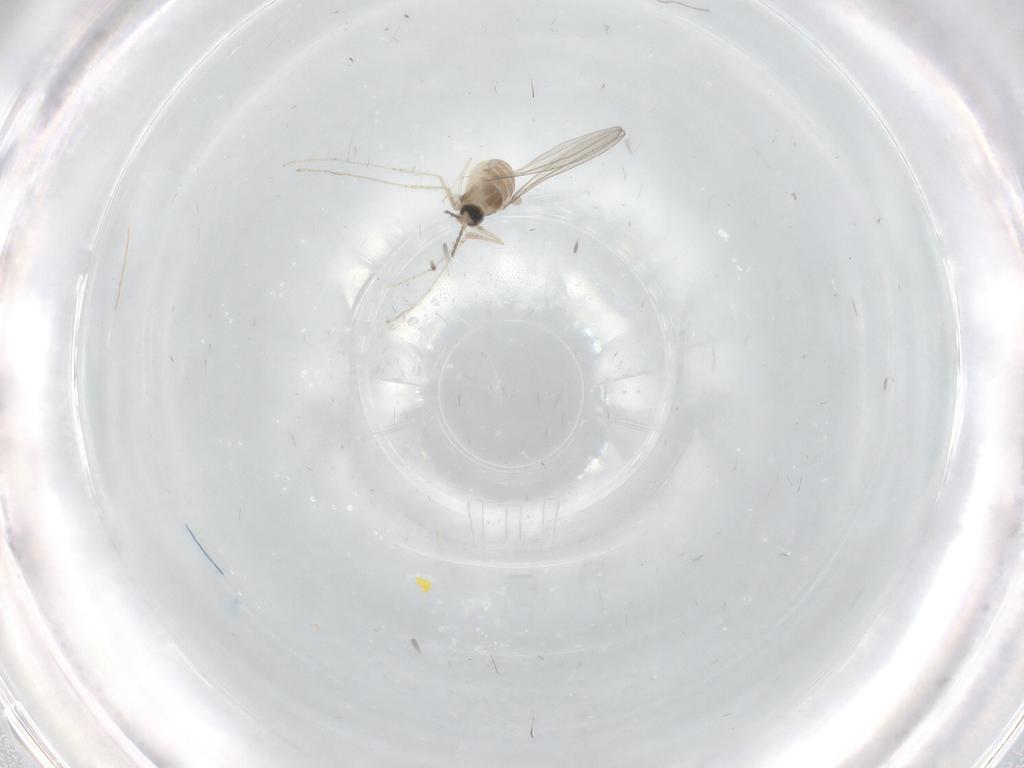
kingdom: Animalia
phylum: Arthropoda
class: Insecta
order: Diptera
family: Cecidomyiidae
